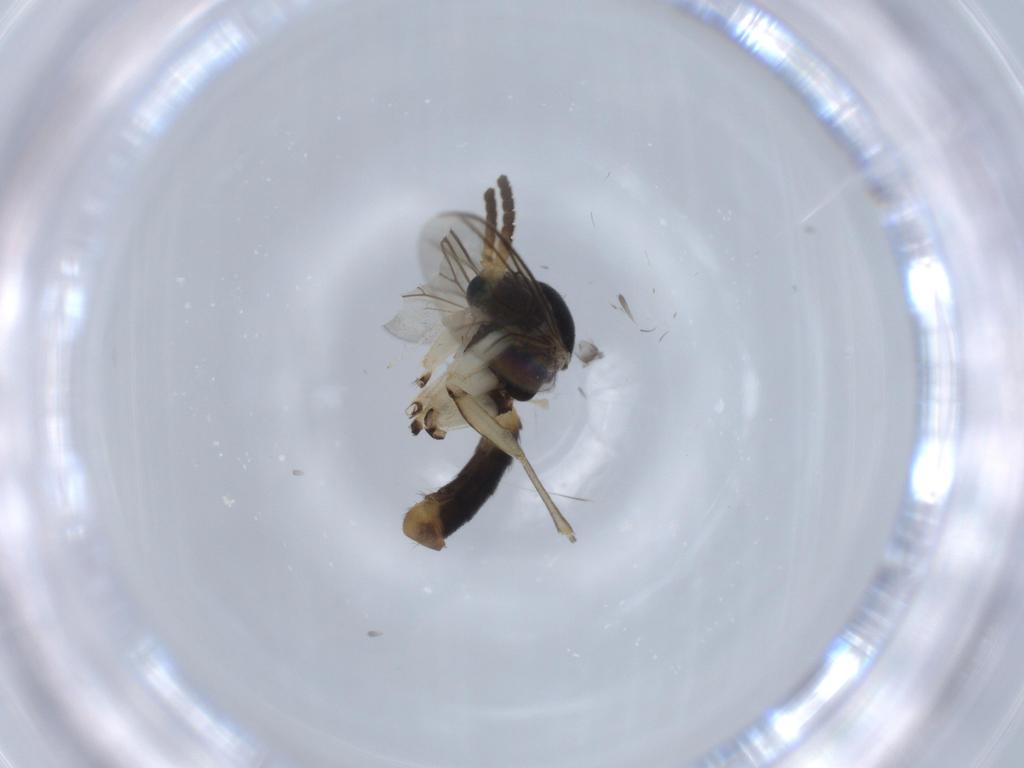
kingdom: Animalia
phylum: Arthropoda
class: Insecta
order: Diptera
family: Mycetophilidae
